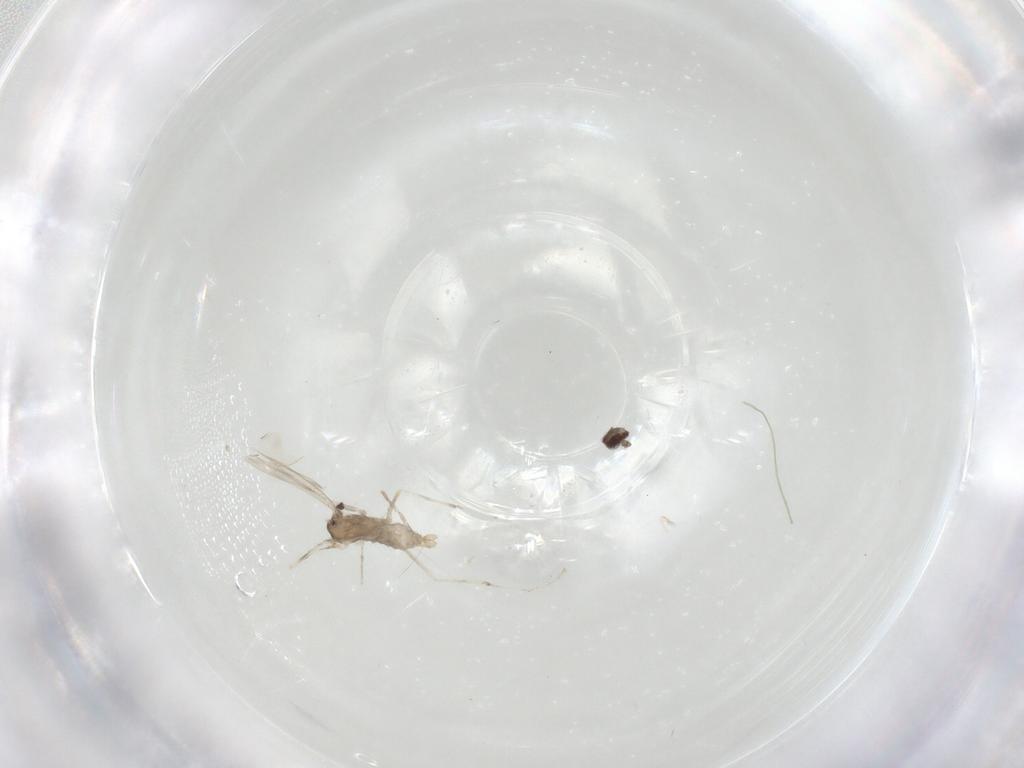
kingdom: Animalia
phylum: Arthropoda
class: Insecta
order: Diptera
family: Cecidomyiidae
